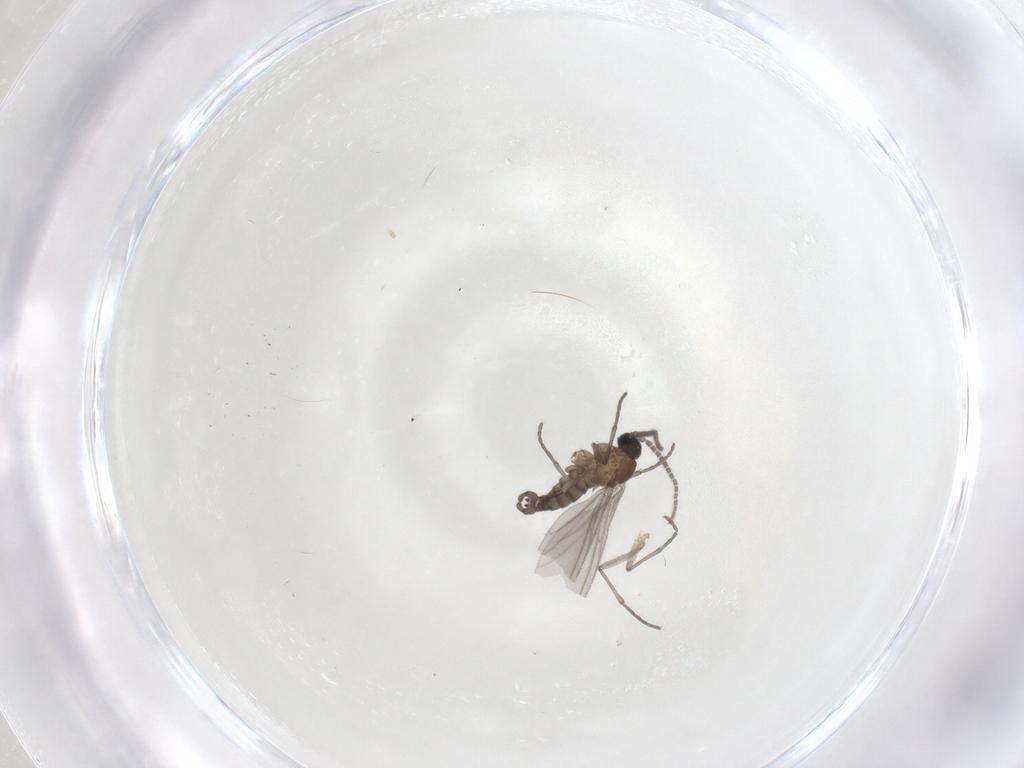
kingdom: Animalia
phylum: Arthropoda
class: Insecta
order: Diptera
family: Sciaridae
